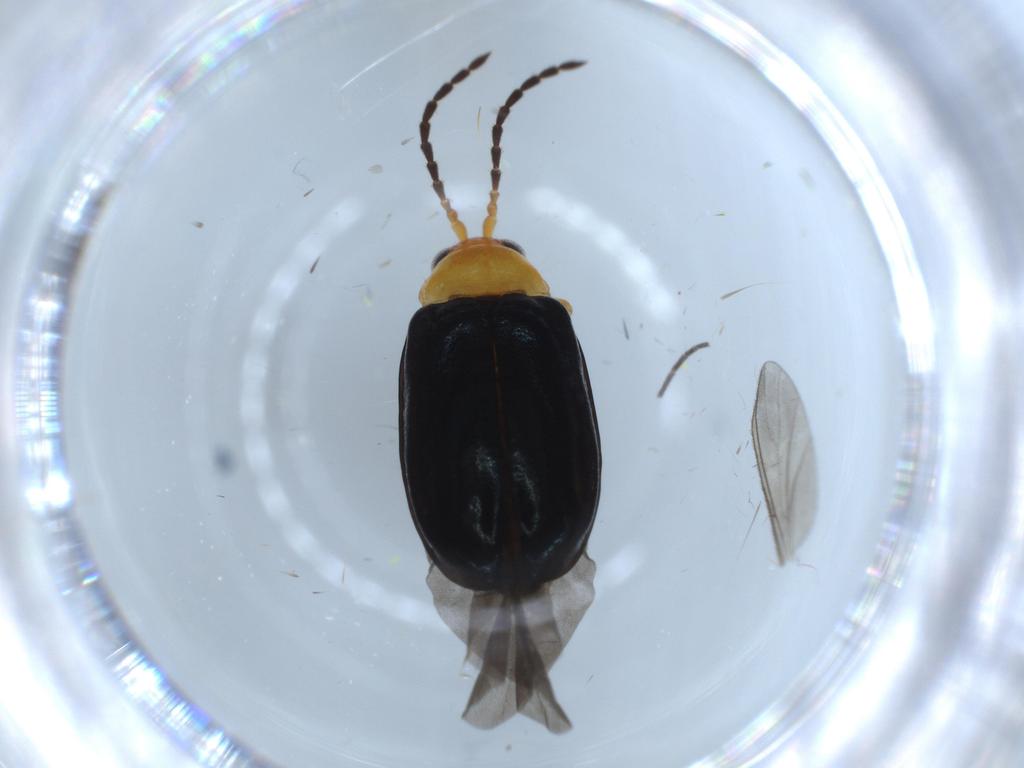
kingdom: Animalia
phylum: Arthropoda
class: Insecta
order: Coleoptera
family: Chrysomelidae
